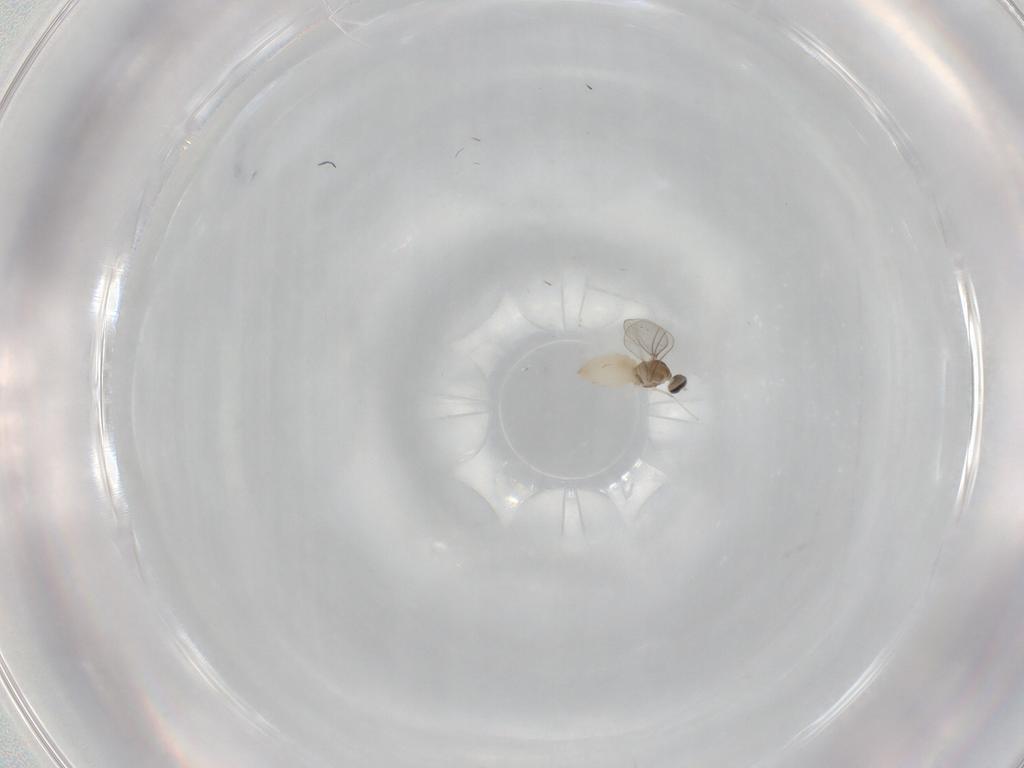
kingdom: Animalia
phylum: Arthropoda
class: Insecta
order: Diptera
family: Cecidomyiidae
